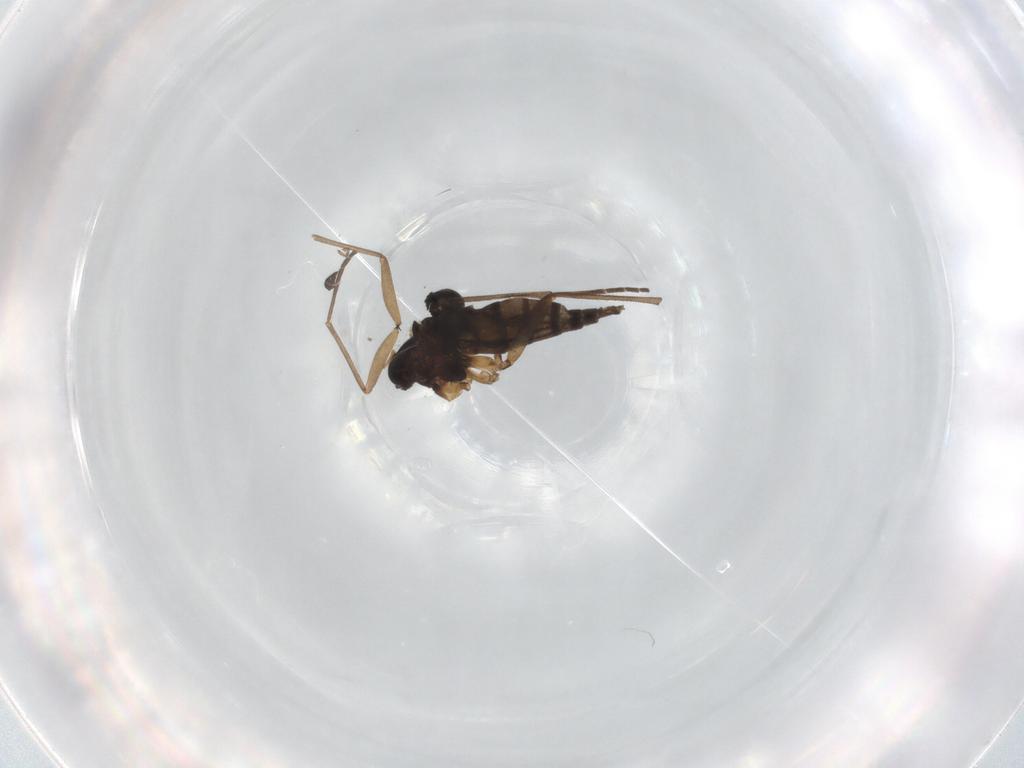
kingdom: Animalia
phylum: Arthropoda
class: Insecta
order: Diptera
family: Sciaridae
